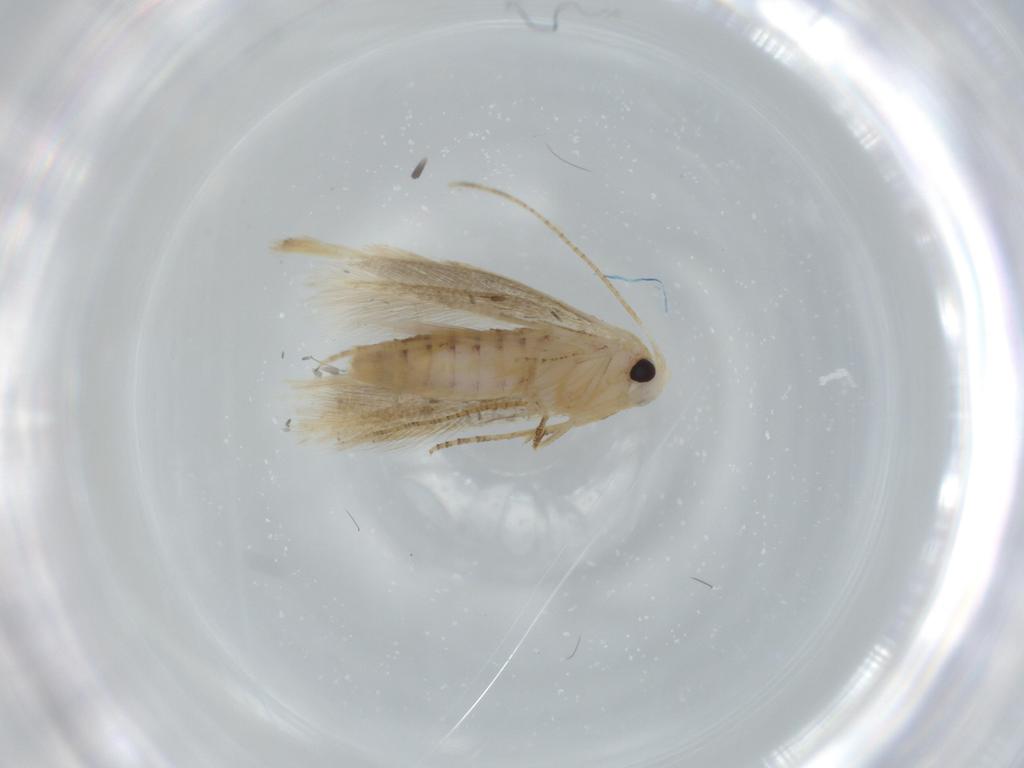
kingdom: Animalia
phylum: Arthropoda
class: Insecta
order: Lepidoptera
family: Bucculatricidae
